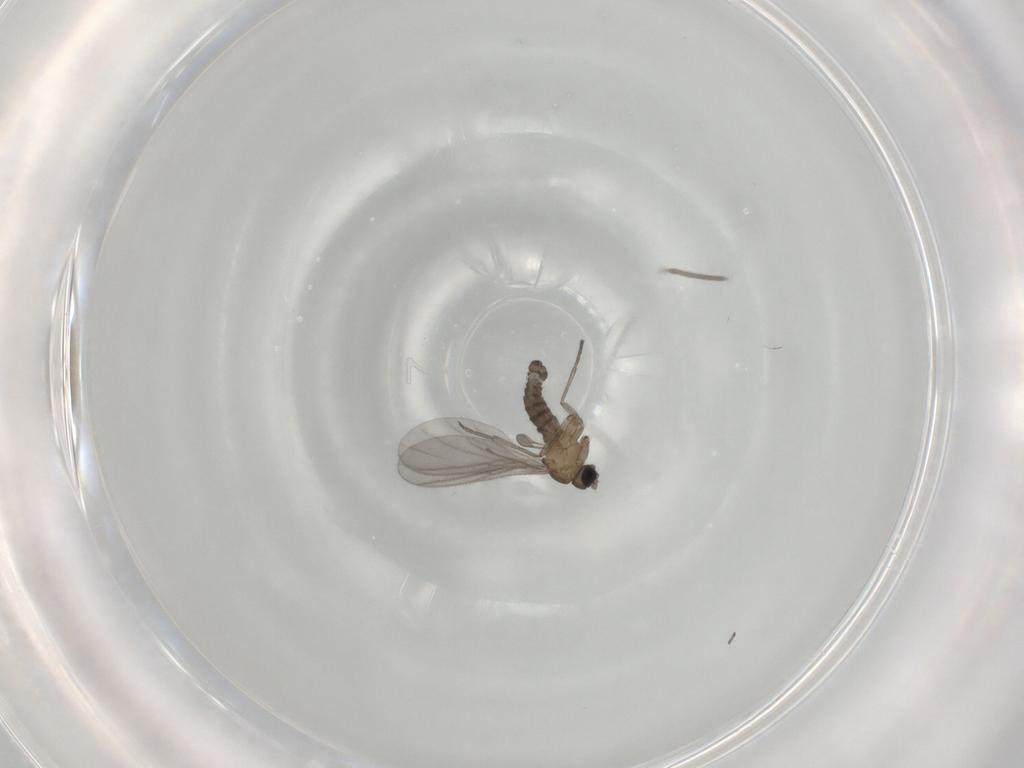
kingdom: Animalia
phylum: Arthropoda
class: Insecta
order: Diptera
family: Sciaridae
